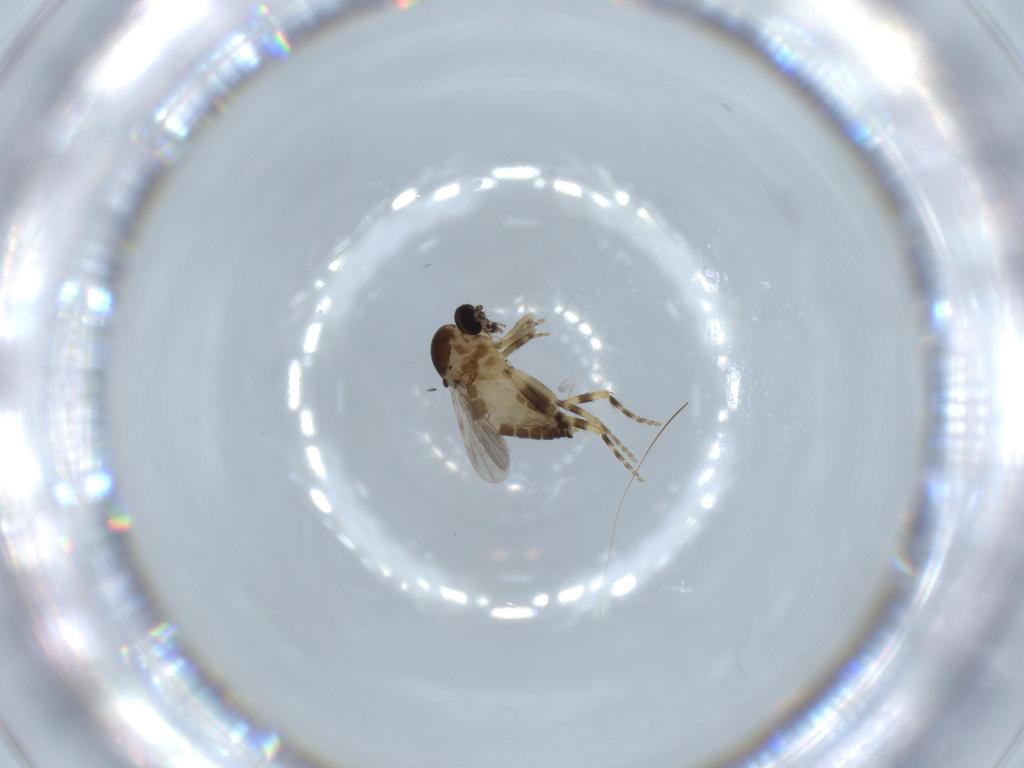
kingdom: Animalia
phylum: Arthropoda
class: Insecta
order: Diptera
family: Ceratopogonidae
